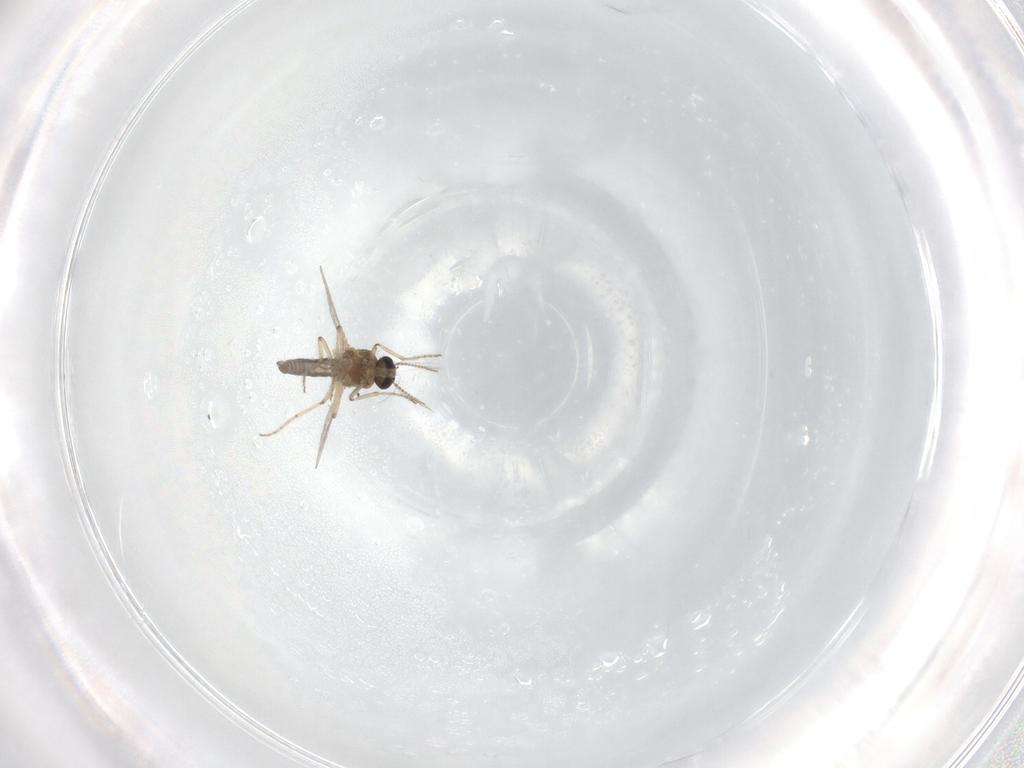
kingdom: Animalia
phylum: Arthropoda
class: Insecta
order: Diptera
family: Ceratopogonidae
